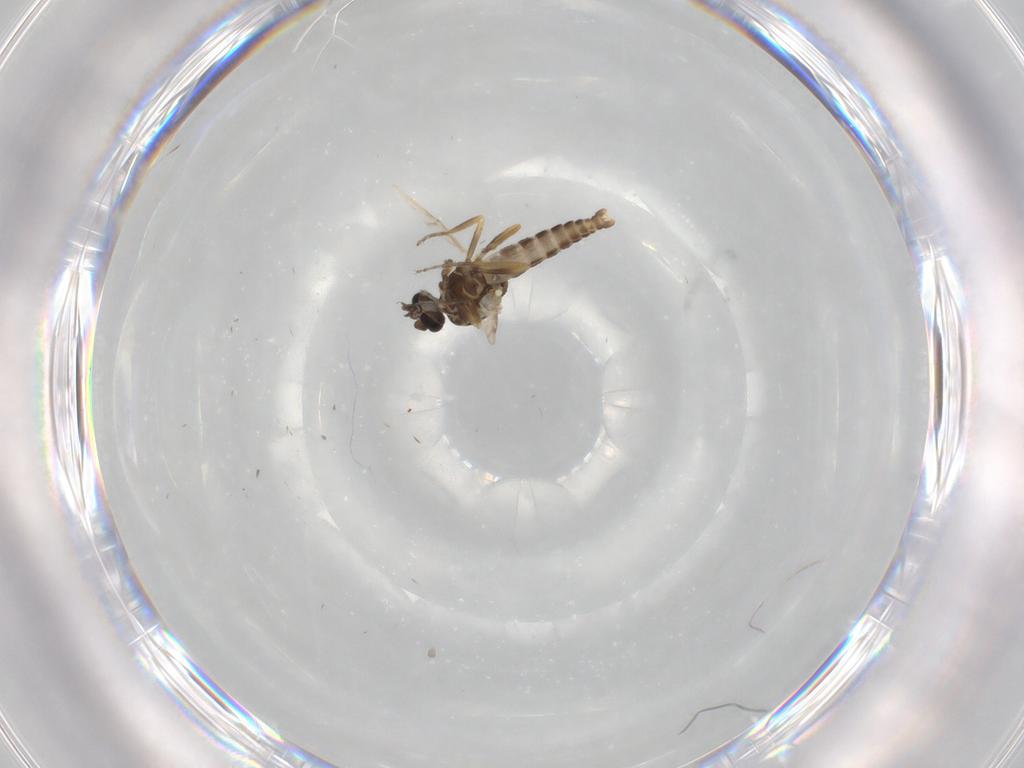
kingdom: Animalia
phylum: Arthropoda
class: Insecta
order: Diptera
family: Ceratopogonidae
